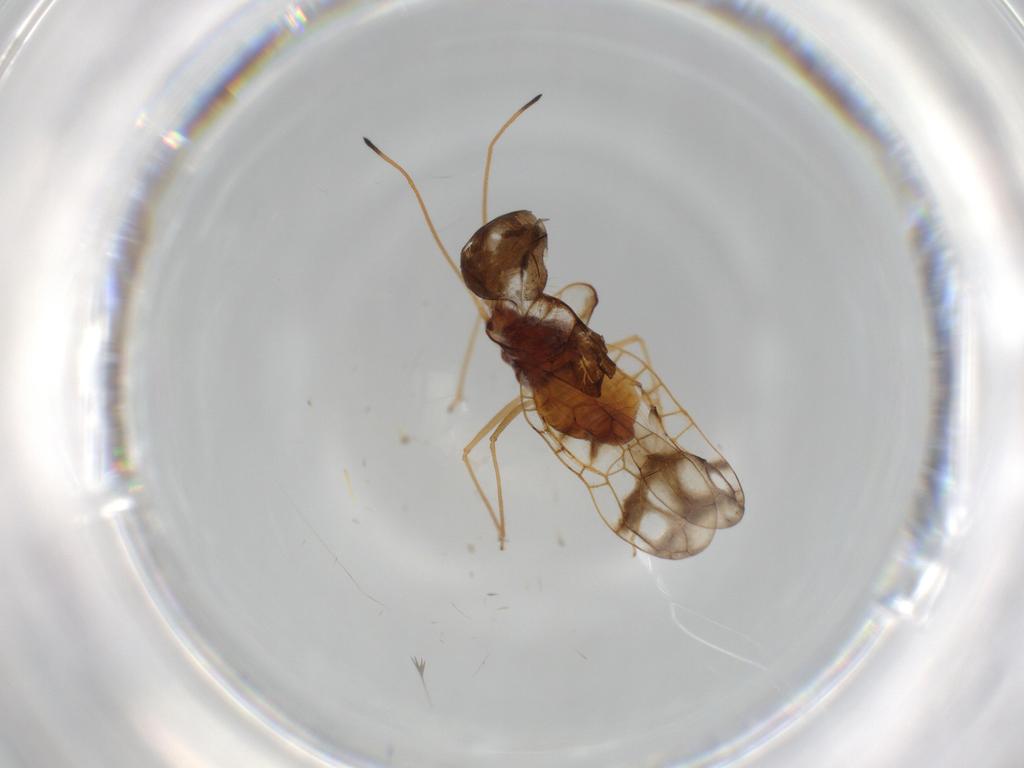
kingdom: Animalia
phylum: Arthropoda
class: Insecta
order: Hemiptera
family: Tingidae
